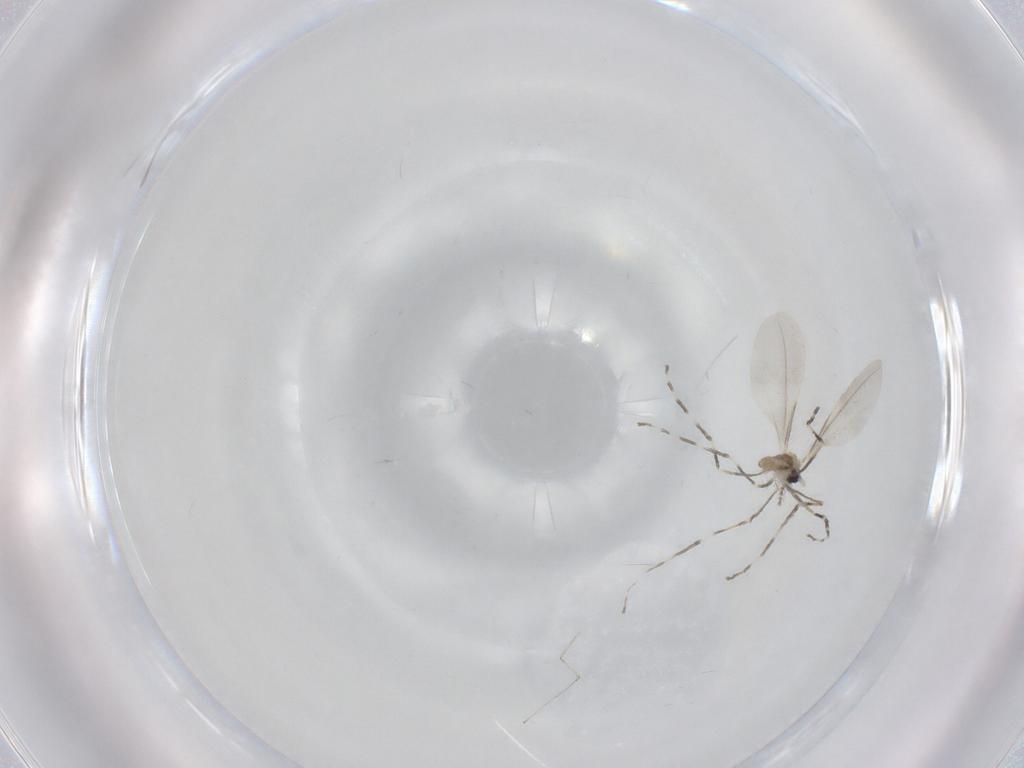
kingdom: Animalia
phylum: Arthropoda
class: Insecta
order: Diptera
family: Cecidomyiidae
